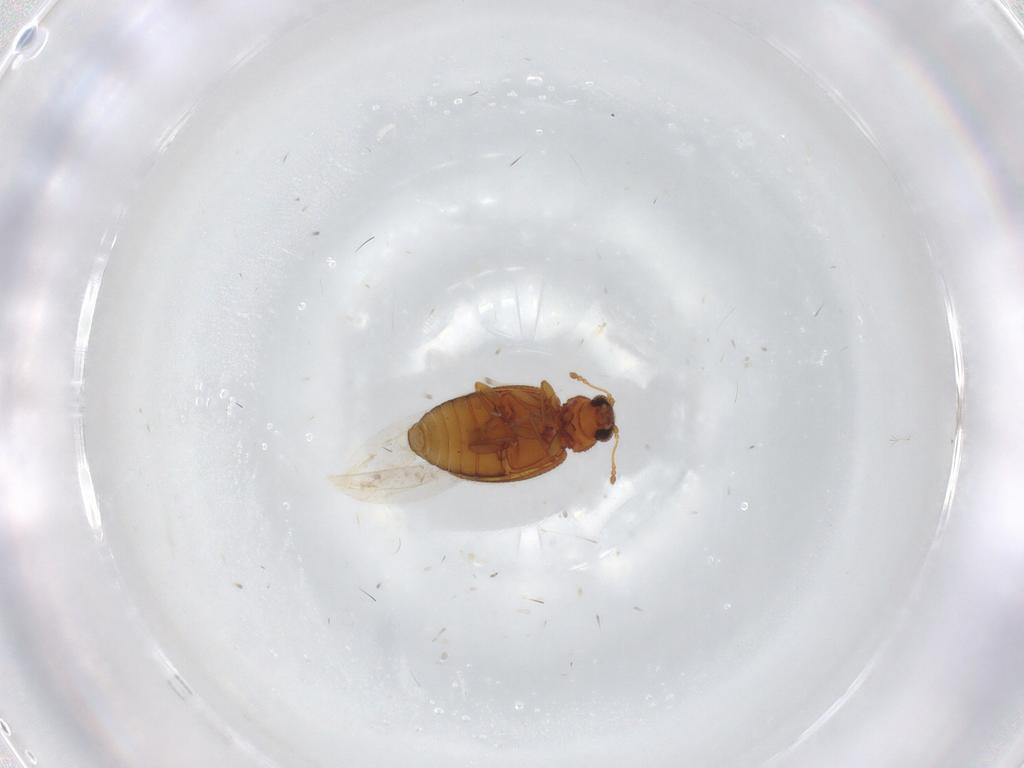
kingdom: Animalia
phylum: Arthropoda
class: Insecta
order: Coleoptera
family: Latridiidae
